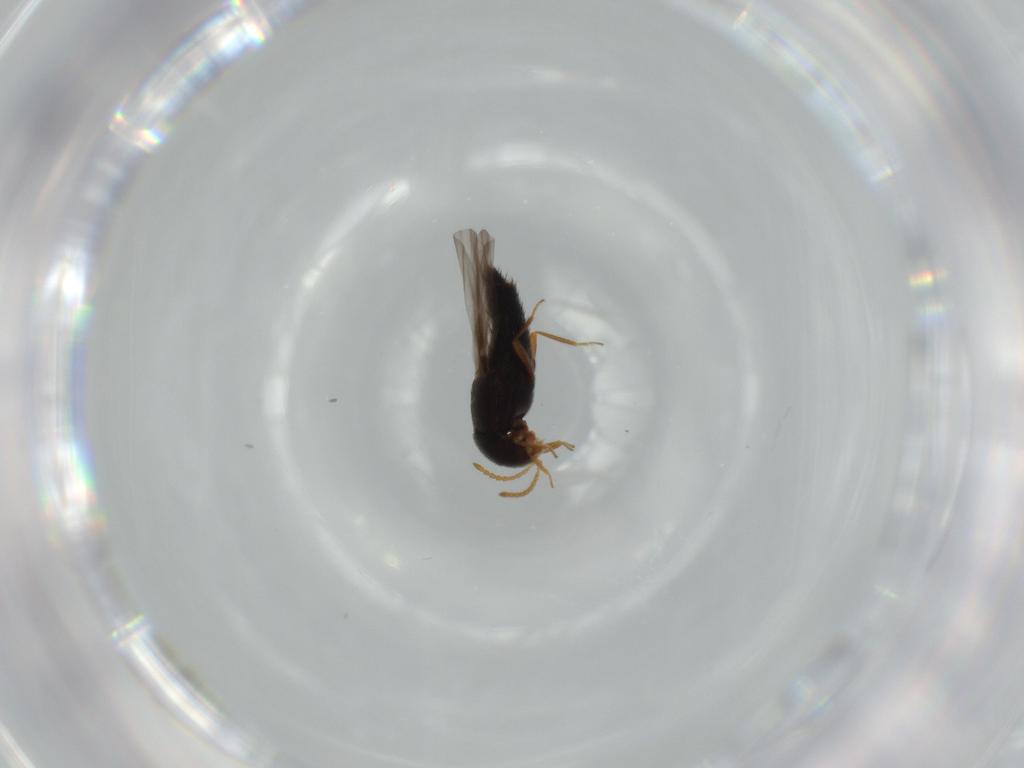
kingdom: Animalia
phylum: Arthropoda
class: Insecta
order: Coleoptera
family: Staphylinidae
